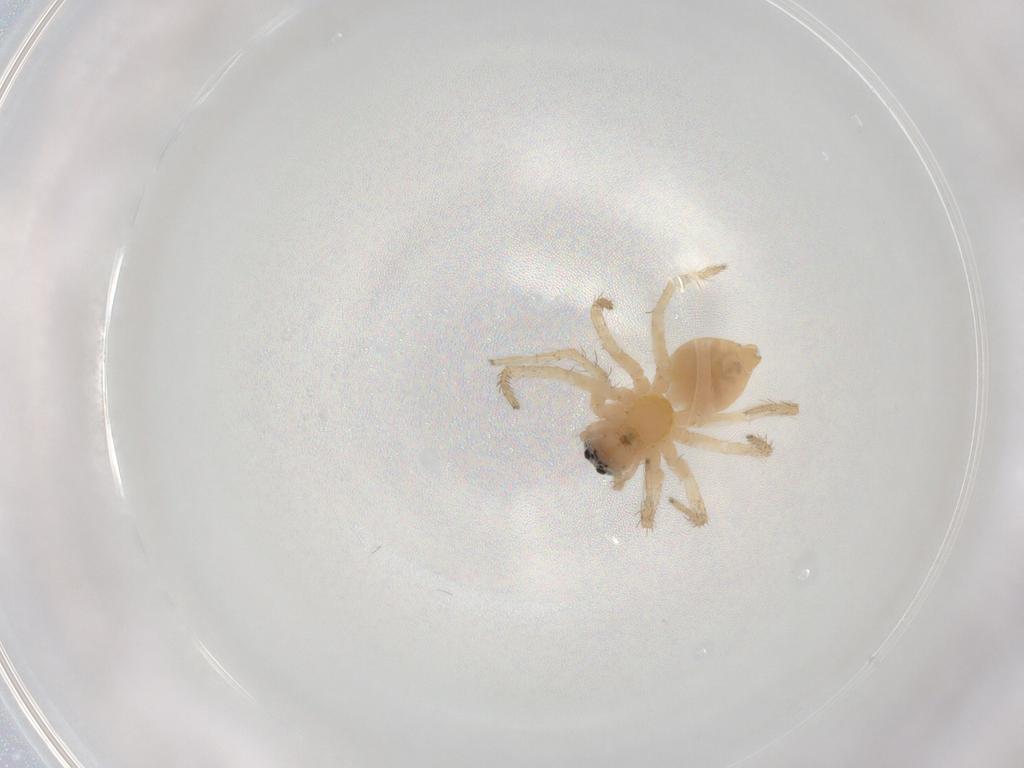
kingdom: Animalia
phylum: Arthropoda
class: Arachnida
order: Araneae
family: Oxyopidae
